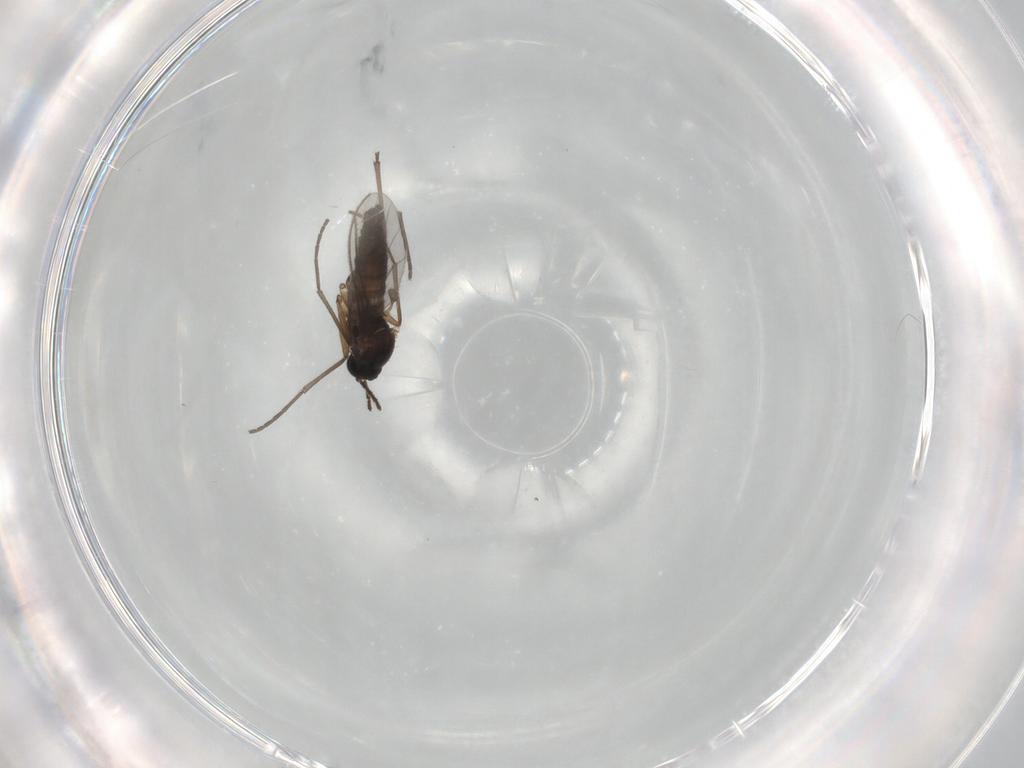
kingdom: Animalia
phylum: Arthropoda
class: Insecta
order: Diptera
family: Sciaridae
